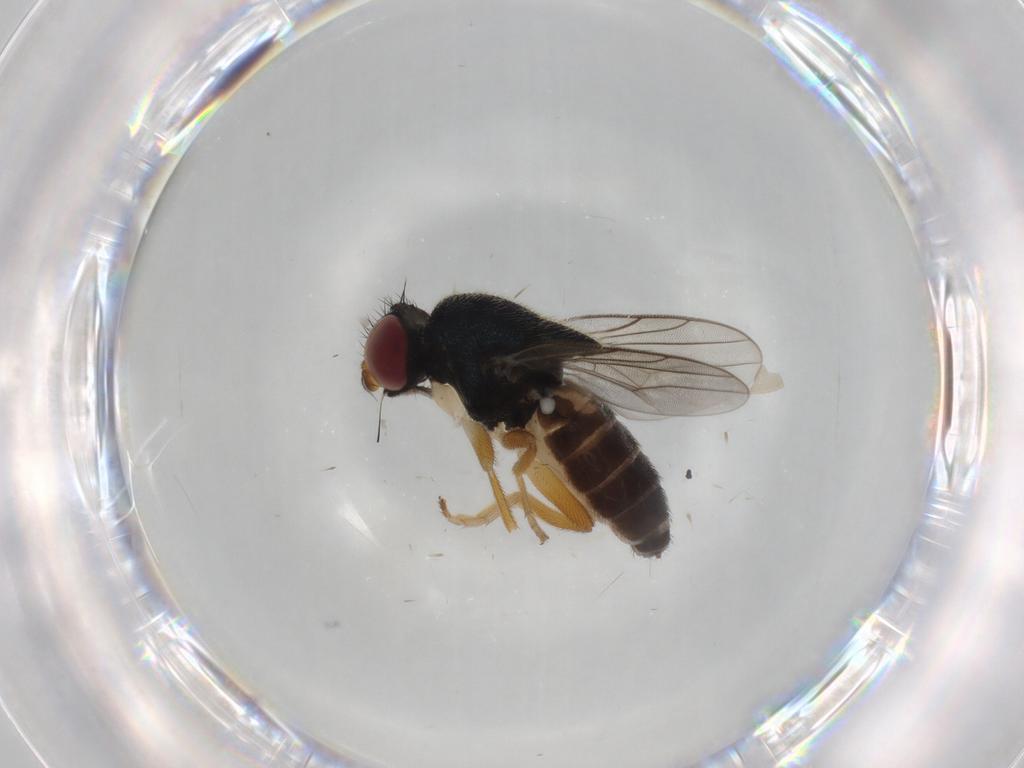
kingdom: Animalia
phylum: Arthropoda
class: Insecta
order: Diptera
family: Chloropidae
